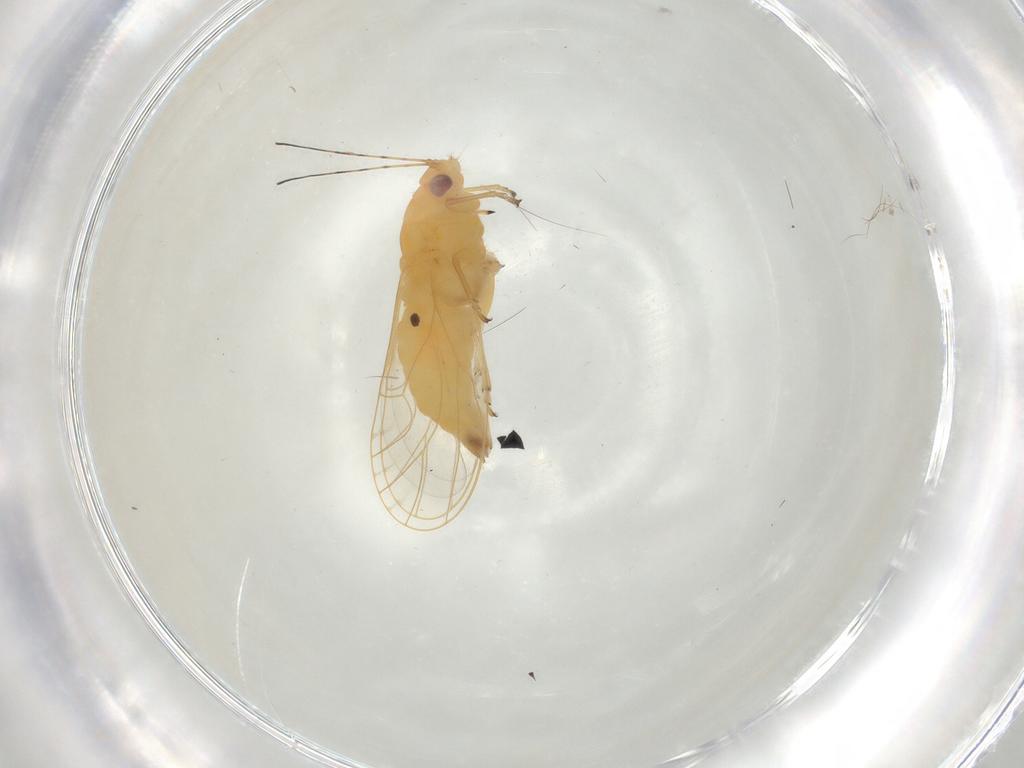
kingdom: Animalia
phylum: Arthropoda
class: Insecta
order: Hemiptera
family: Psyllidae
